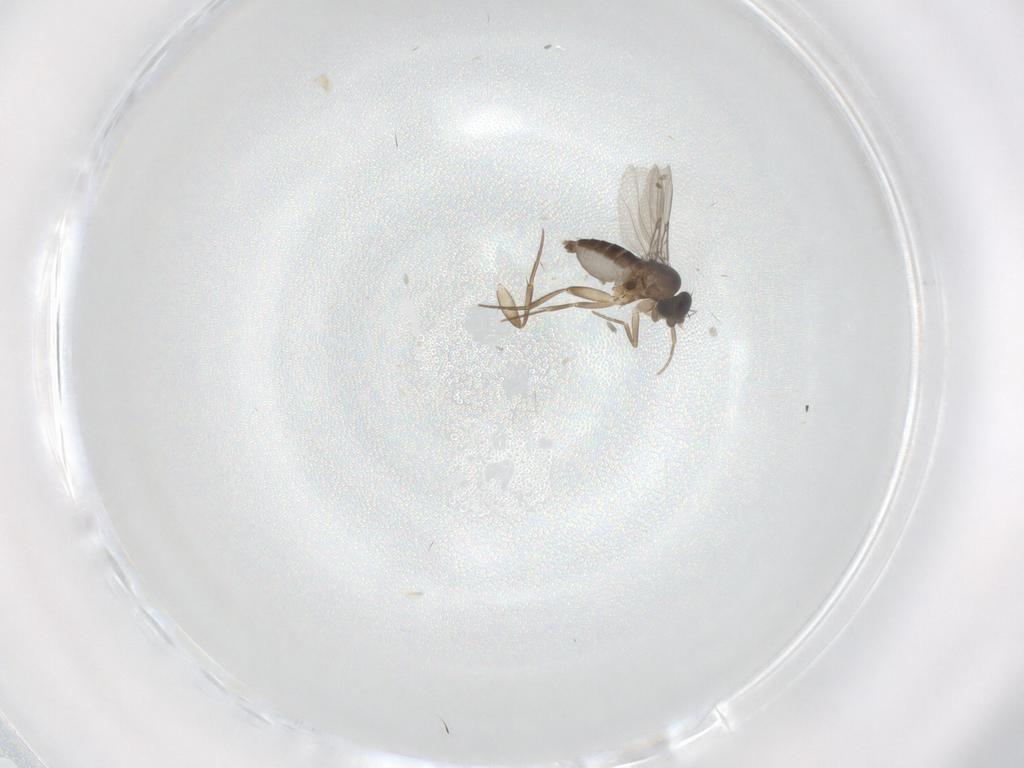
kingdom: Animalia
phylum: Arthropoda
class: Insecta
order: Diptera
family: Phoridae
